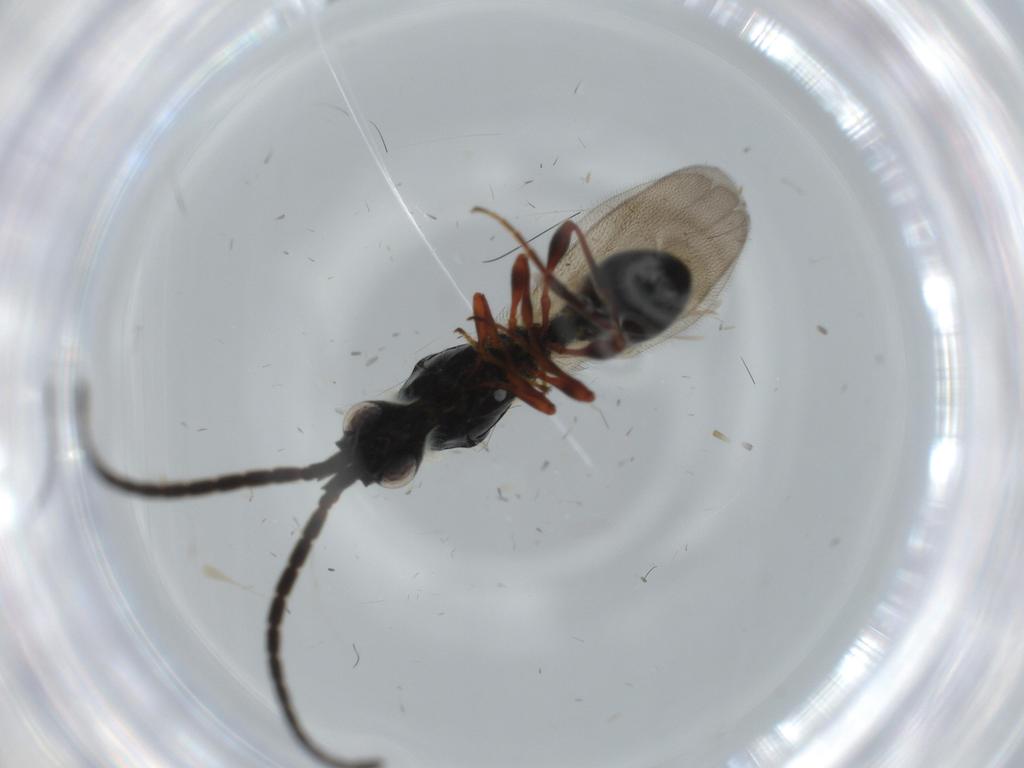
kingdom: Animalia
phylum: Arthropoda
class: Insecta
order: Hymenoptera
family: Diapriidae
